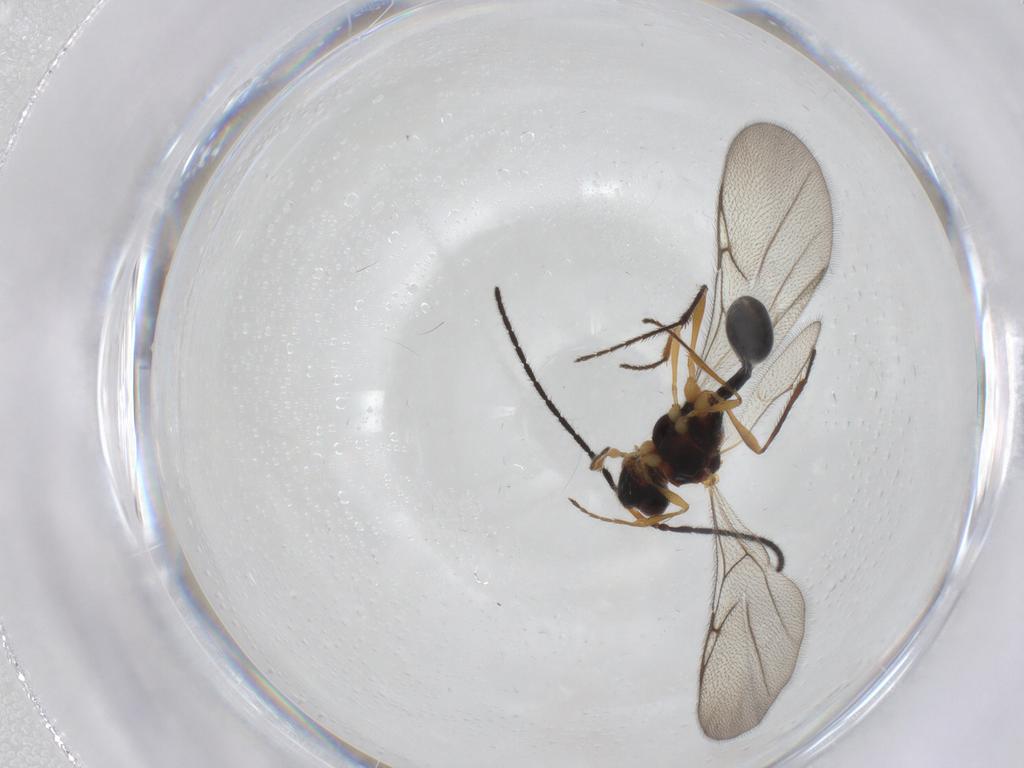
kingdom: Animalia
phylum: Arthropoda
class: Insecta
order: Hymenoptera
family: Diapriidae
